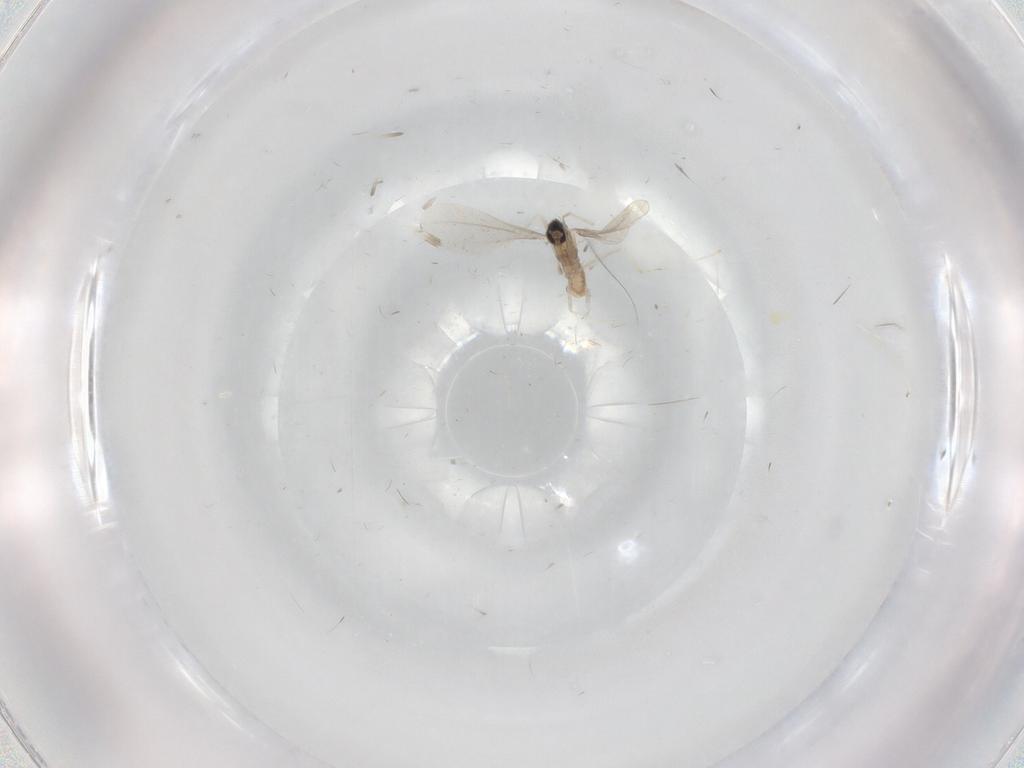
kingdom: Animalia
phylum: Arthropoda
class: Insecta
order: Diptera
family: Cecidomyiidae
